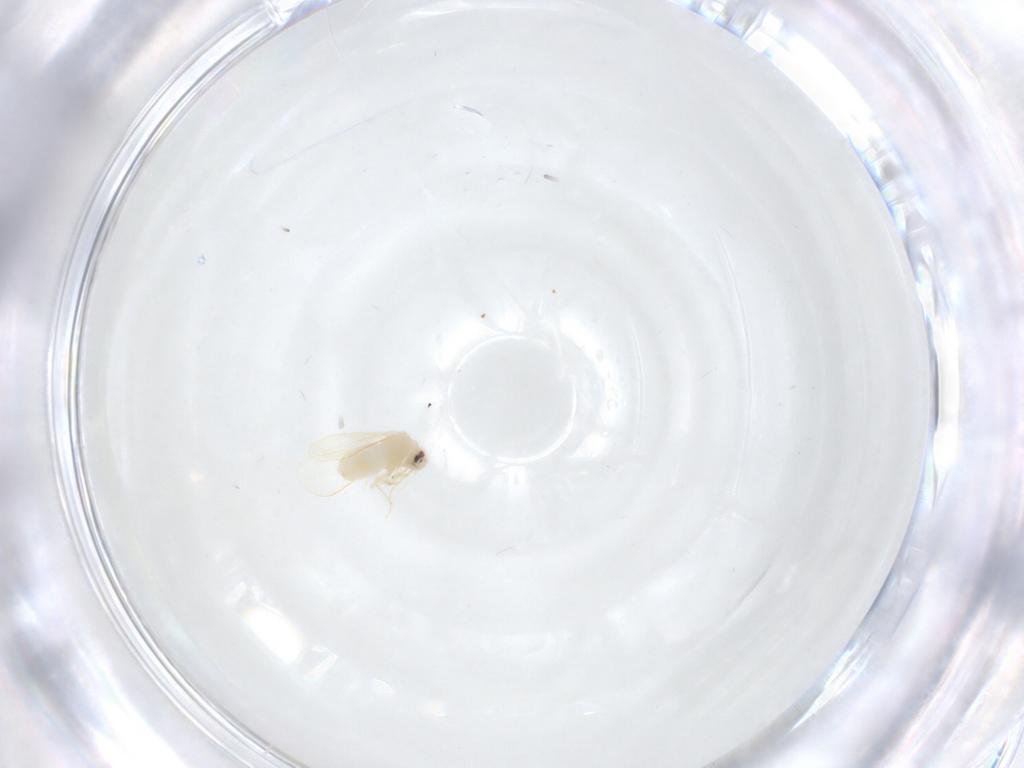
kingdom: Animalia
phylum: Arthropoda
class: Insecta
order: Hemiptera
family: Aleyrodidae
